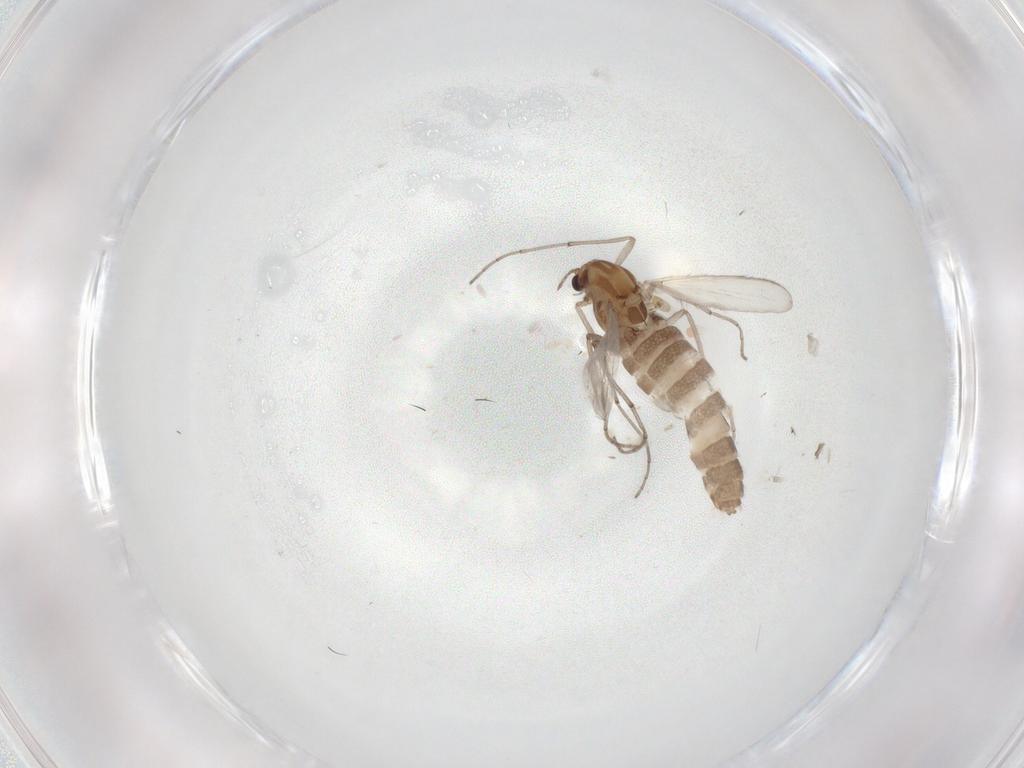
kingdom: Animalia
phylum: Arthropoda
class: Insecta
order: Diptera
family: Chironomidae
